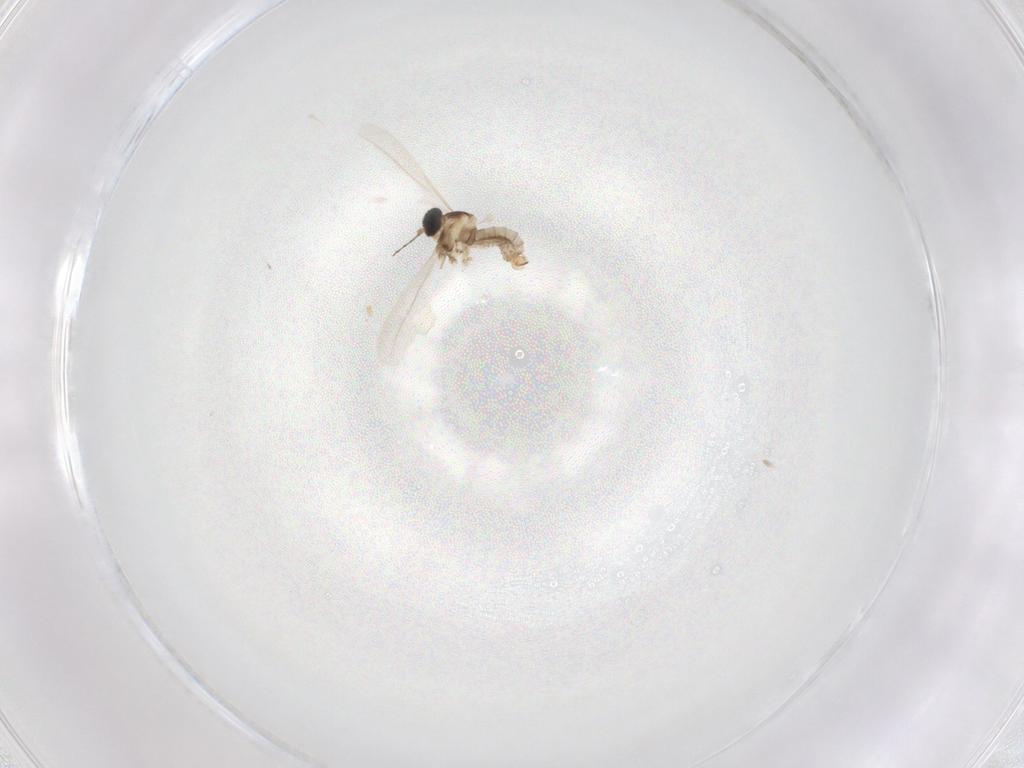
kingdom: Animalia
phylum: Arthropoda
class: Insecta
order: Diptera
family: Cecidomyiidae
